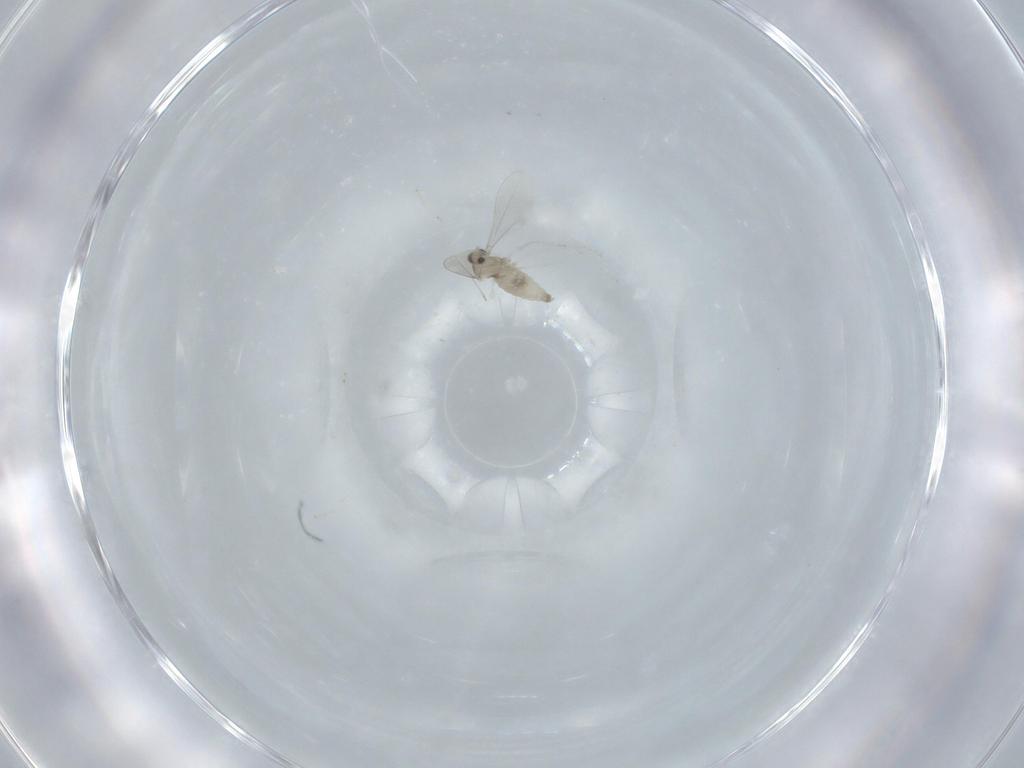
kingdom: Animalia
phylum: Arthropoda
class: Insecta
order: Diptera
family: Cecidomyiidae
